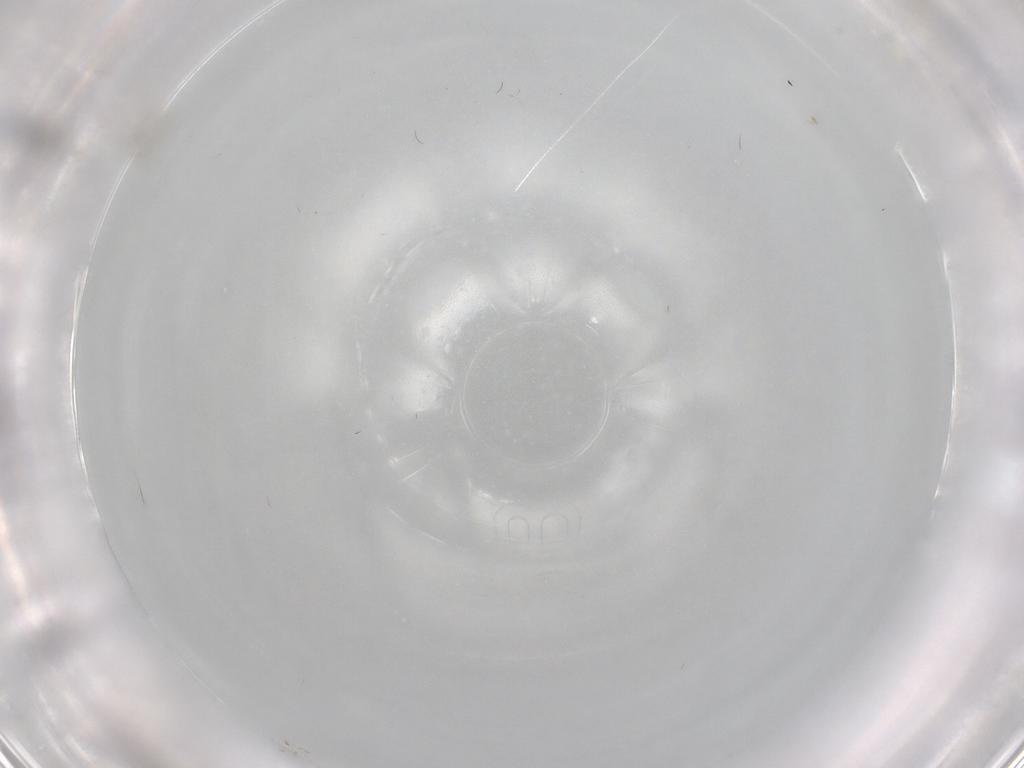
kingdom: Animalia
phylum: Arthropoda
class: Insecta
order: Hymenoptera
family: Mymaridae
